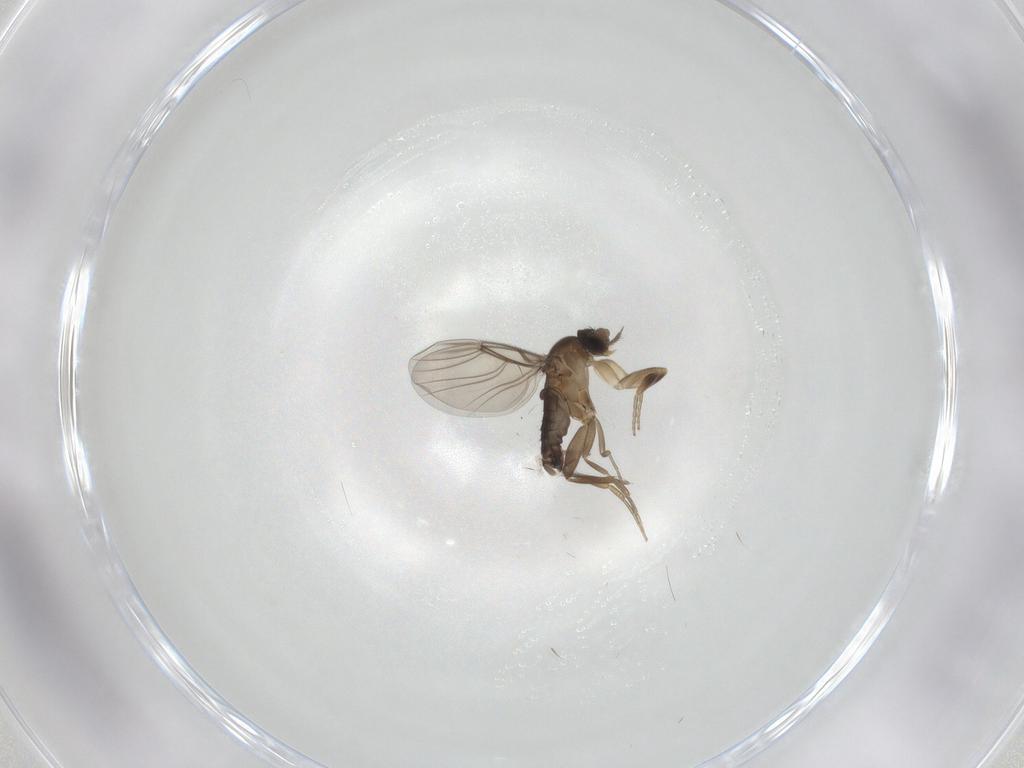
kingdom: Animalia
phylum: Arthropoda
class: Insecta
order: Diptera
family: Phoridae
